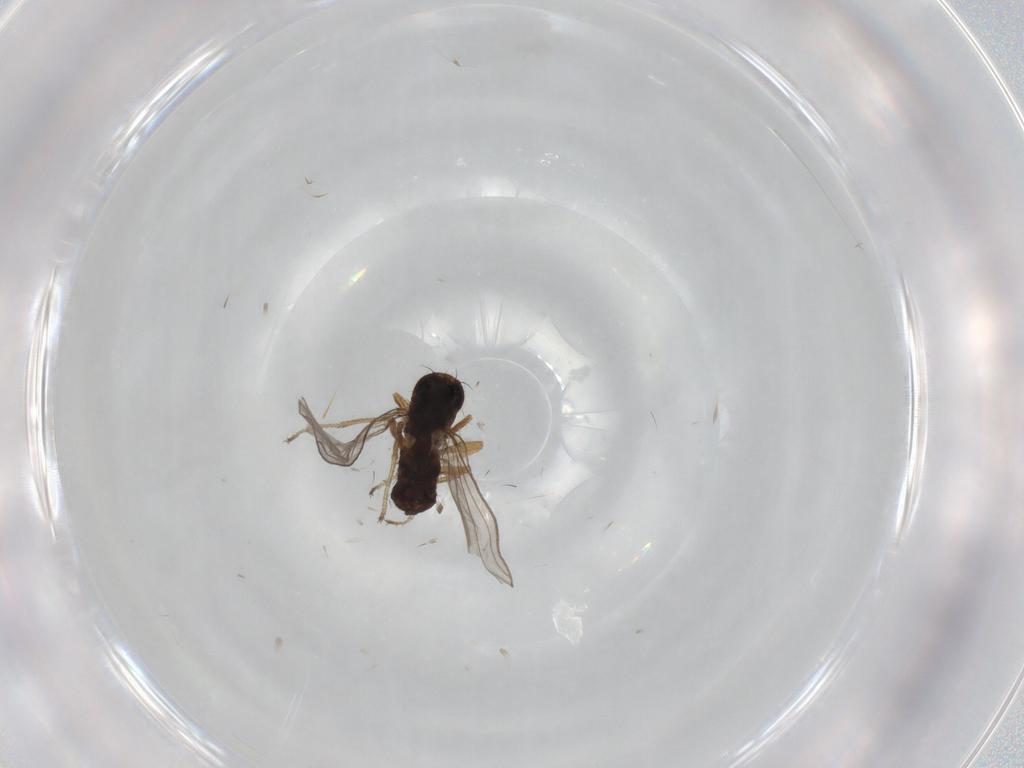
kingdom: Animalia
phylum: Arthropoda
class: Insecta
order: Diptera
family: Chloropidae
